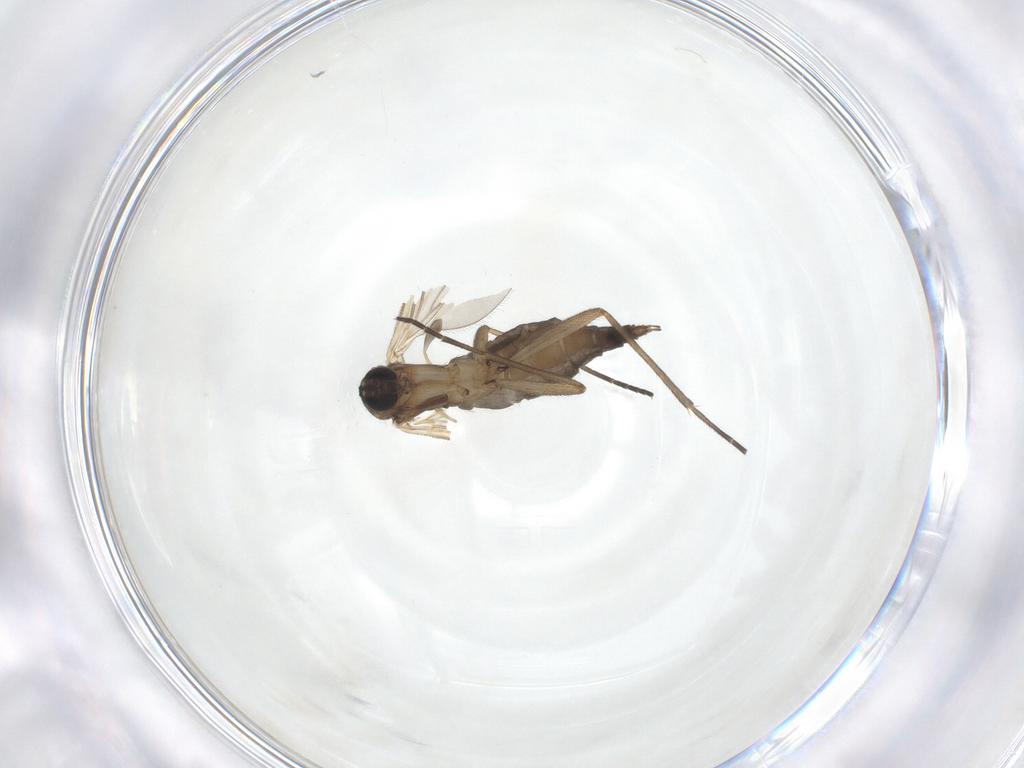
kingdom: Animalia
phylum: Arthropoda
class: Insecta
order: Diptera
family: Sciaridae
